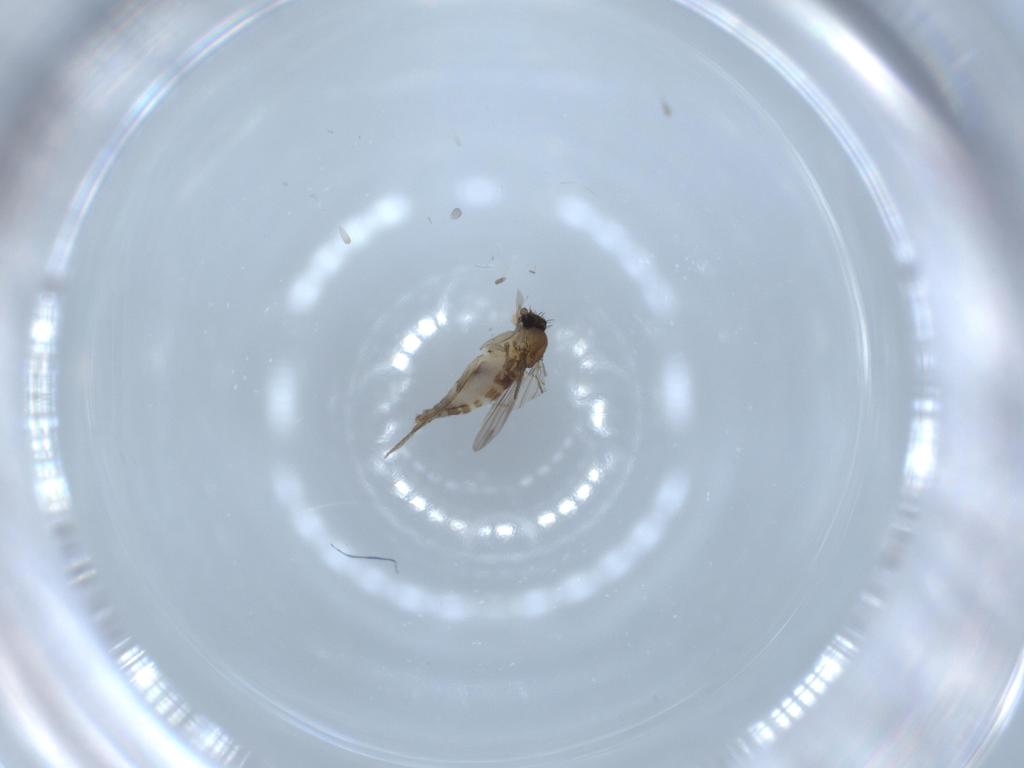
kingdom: Animalia
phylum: Arthropoda
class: Insecta
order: Diptera
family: Phoridae
